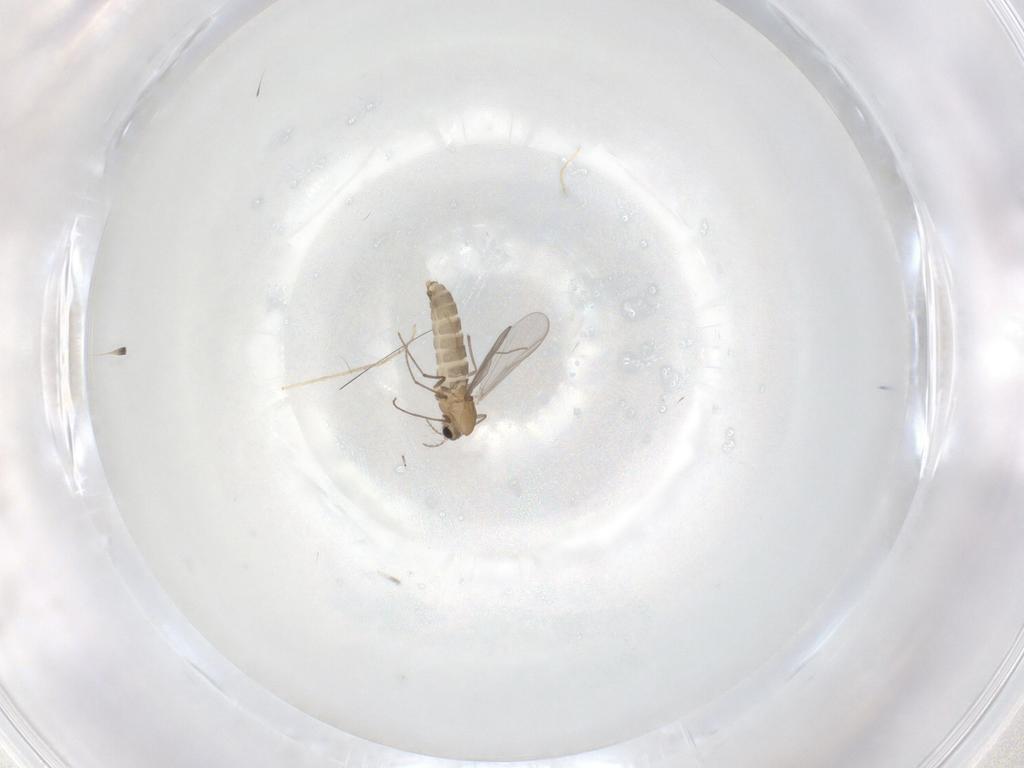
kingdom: Animalia
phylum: Arthropoda
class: Insecta
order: Diptera
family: Chironomidae
